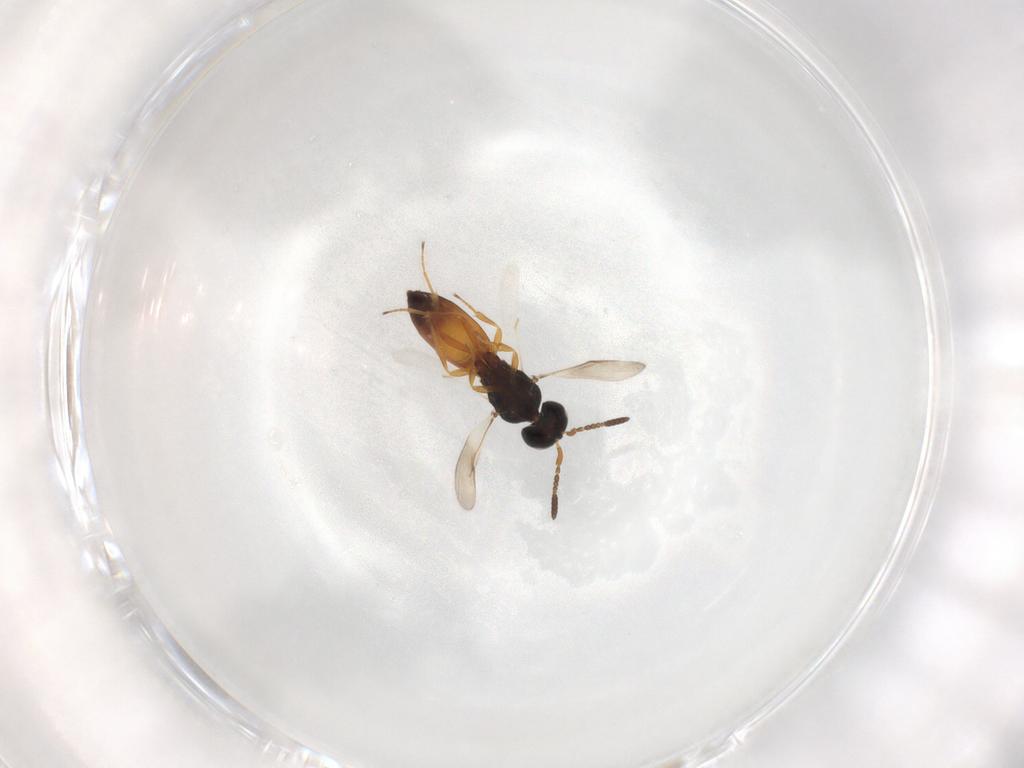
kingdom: Animalia
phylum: Arthropoda
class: Insecta
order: Hymenoptera
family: Scelionidae
